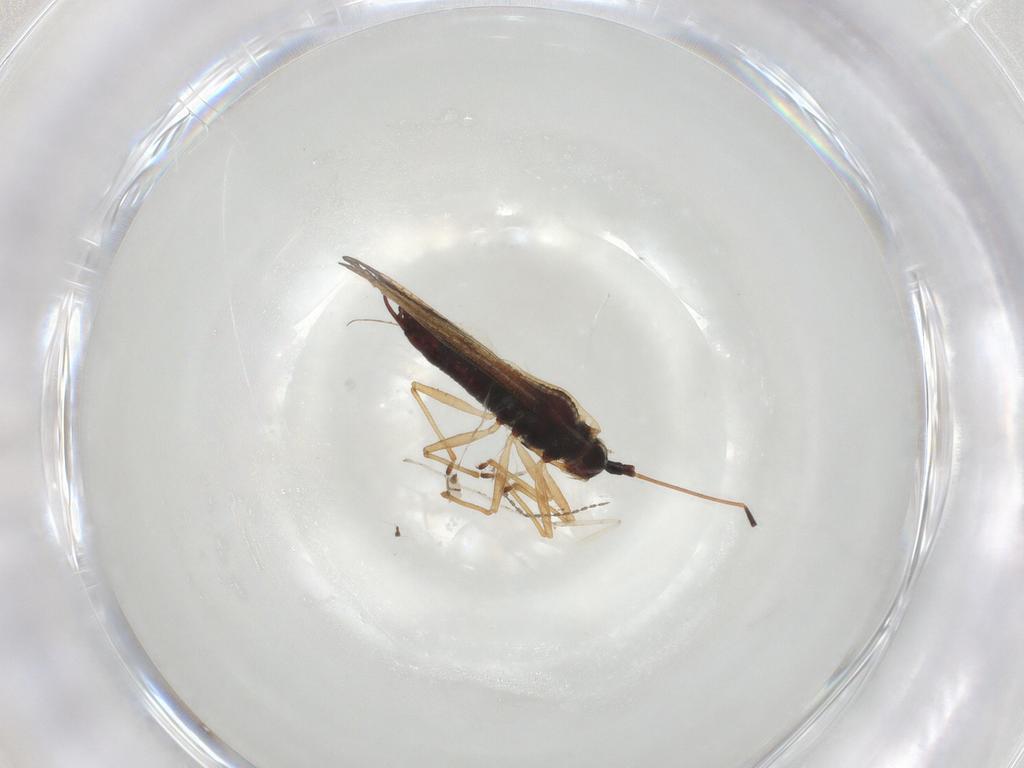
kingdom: Animalia
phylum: Arthropoda
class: Insecta
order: Hemiptera
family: Tingidae
